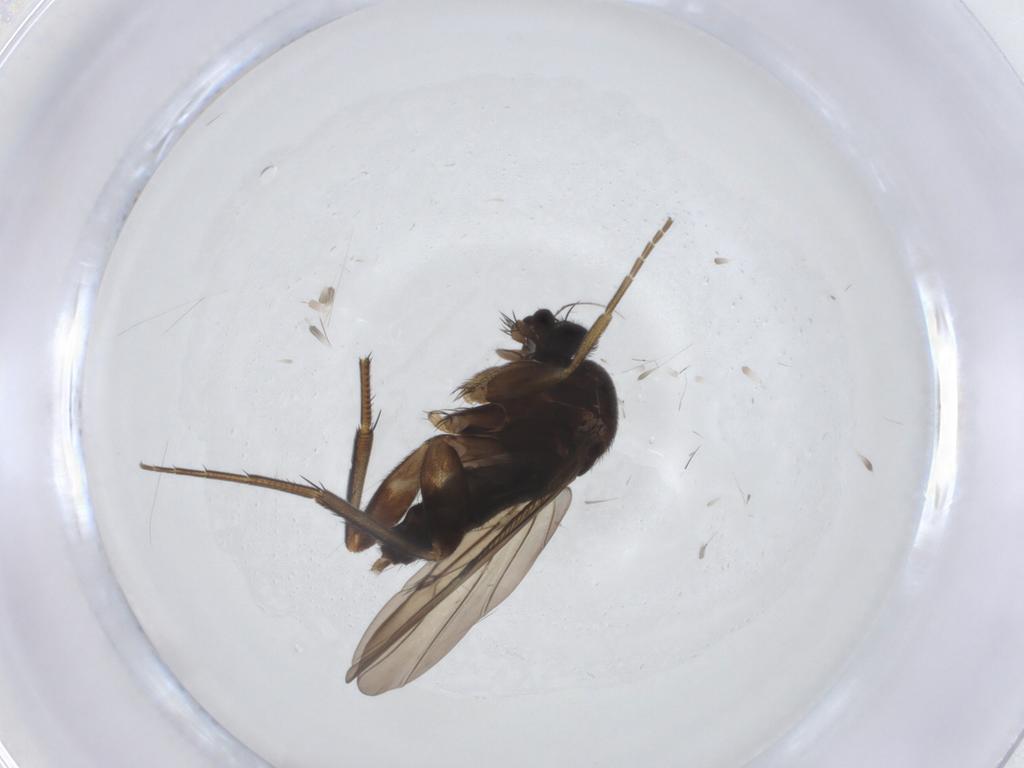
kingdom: Animalia
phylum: Arthropoda
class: Insecta
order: Diptera
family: Phoridae
